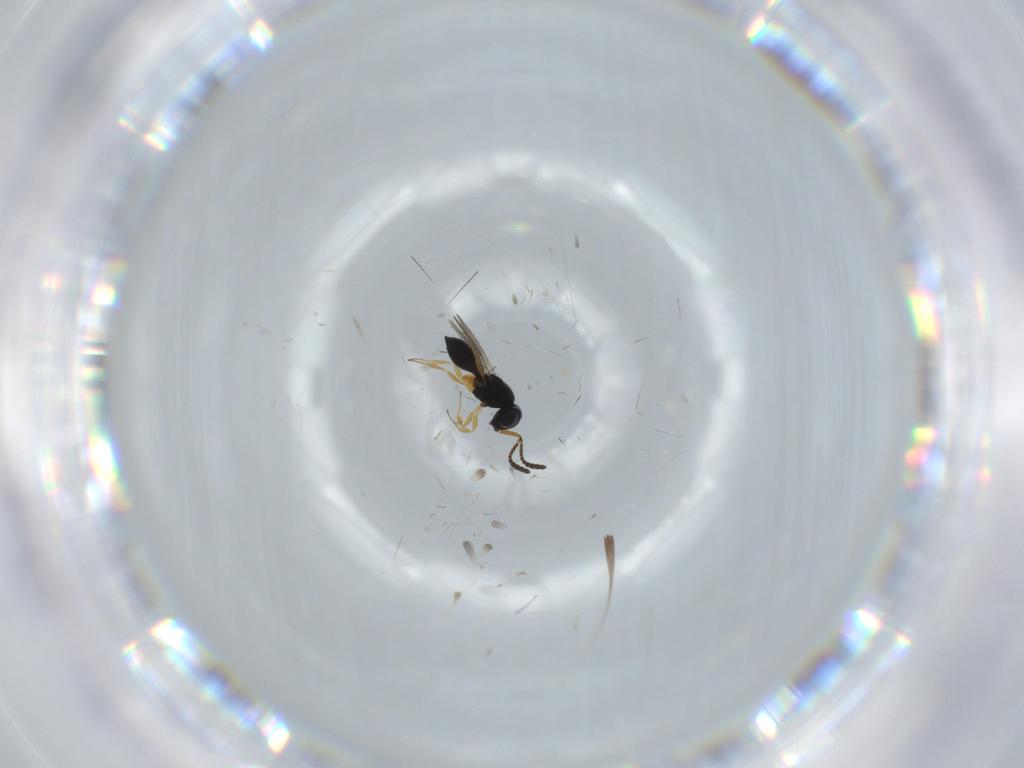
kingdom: Animalia
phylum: Arthropoda
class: Insecta
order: Hymenoptera
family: Scelionidae
